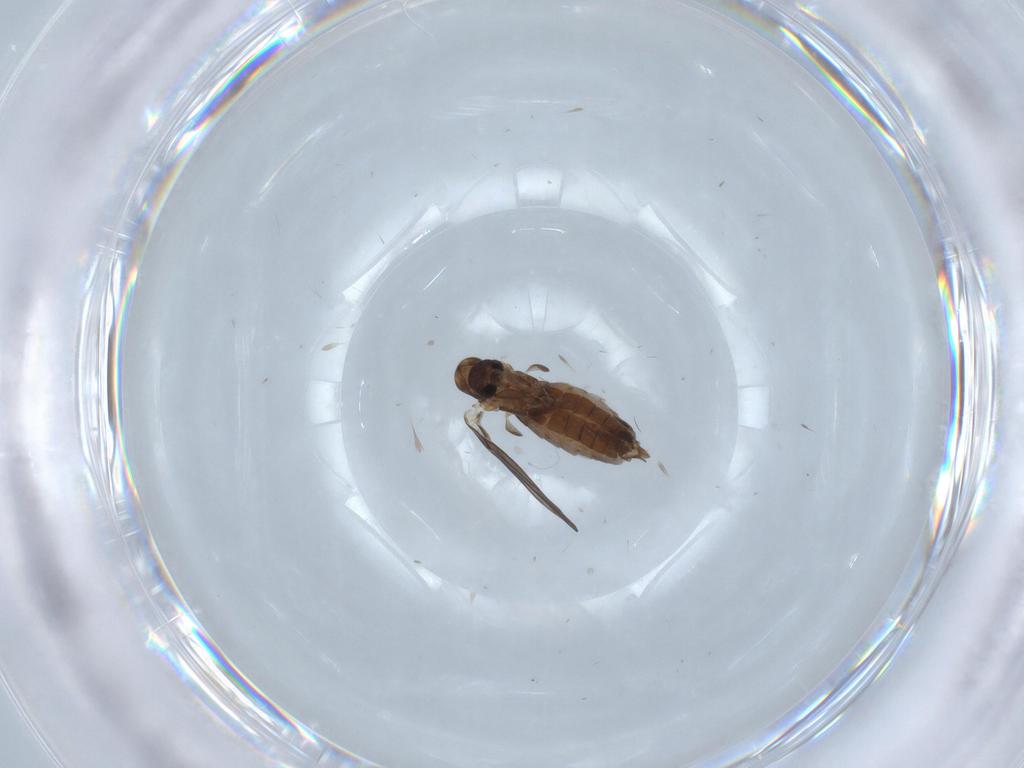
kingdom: Animalia
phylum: Arthropoda
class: Insecta
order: Diptera
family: Cecidomyiidae
